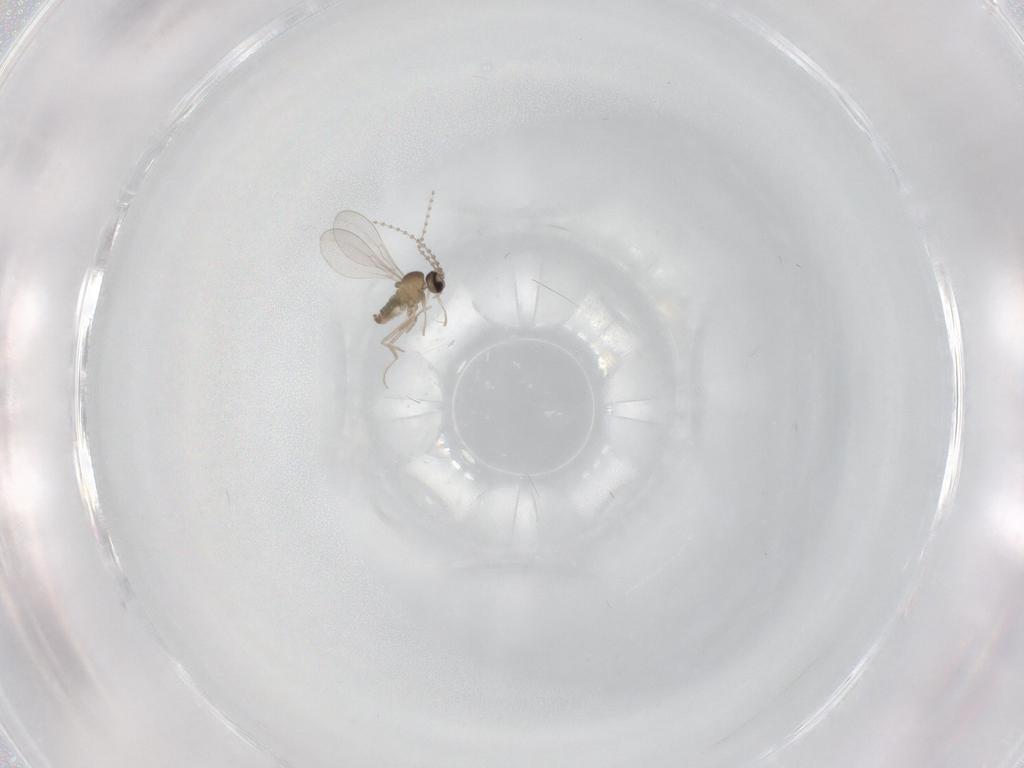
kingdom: Animalia
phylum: Arthropoda
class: Insecta
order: Diptera
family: Cecidomyiidae
